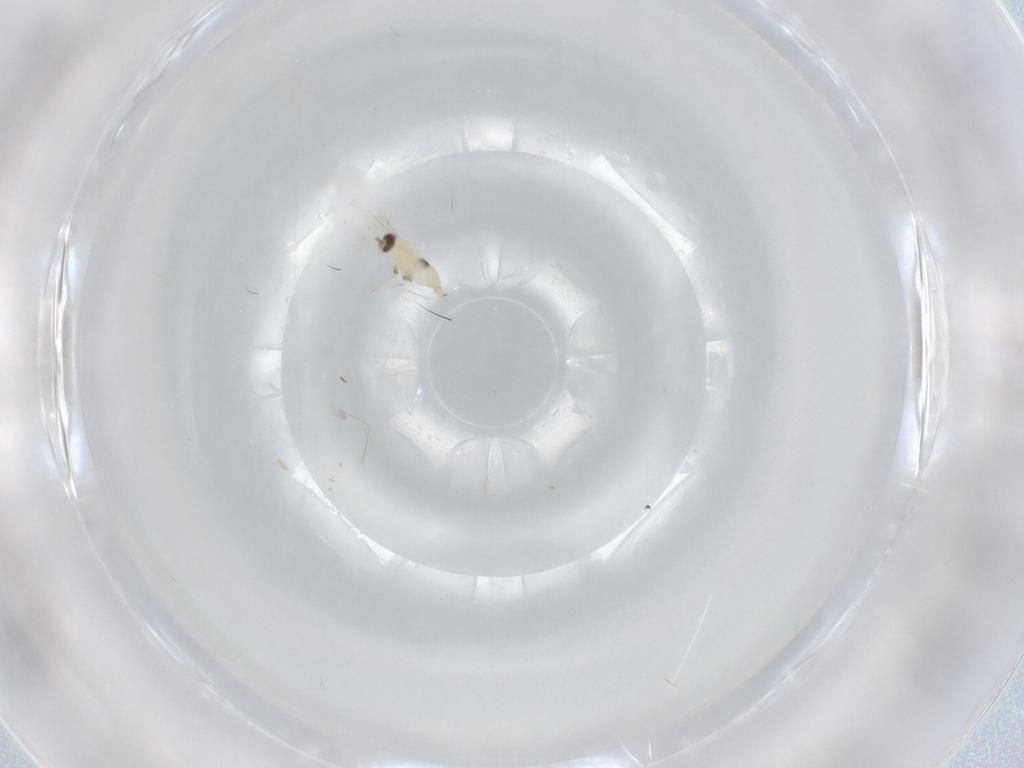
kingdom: Animalia
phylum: Arthropoda
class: Insecta
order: Diptera
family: Cecidomyiidae
